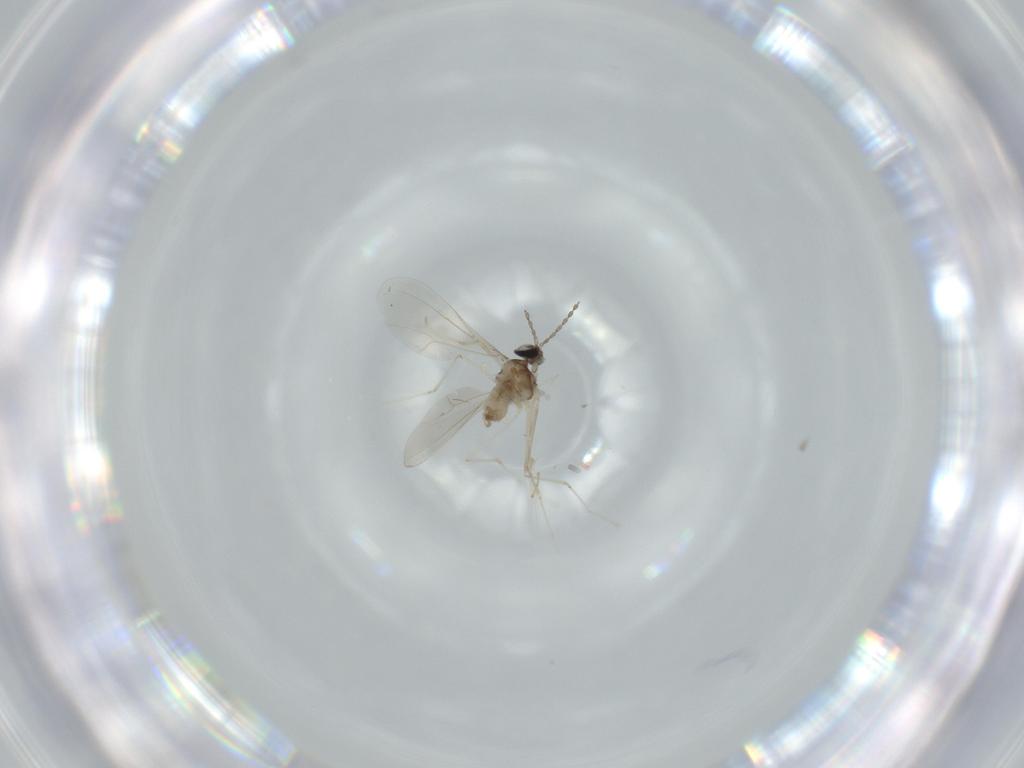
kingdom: Animalia
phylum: Arthropoda
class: Insecta
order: Diptera
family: Cecidomyiidae
